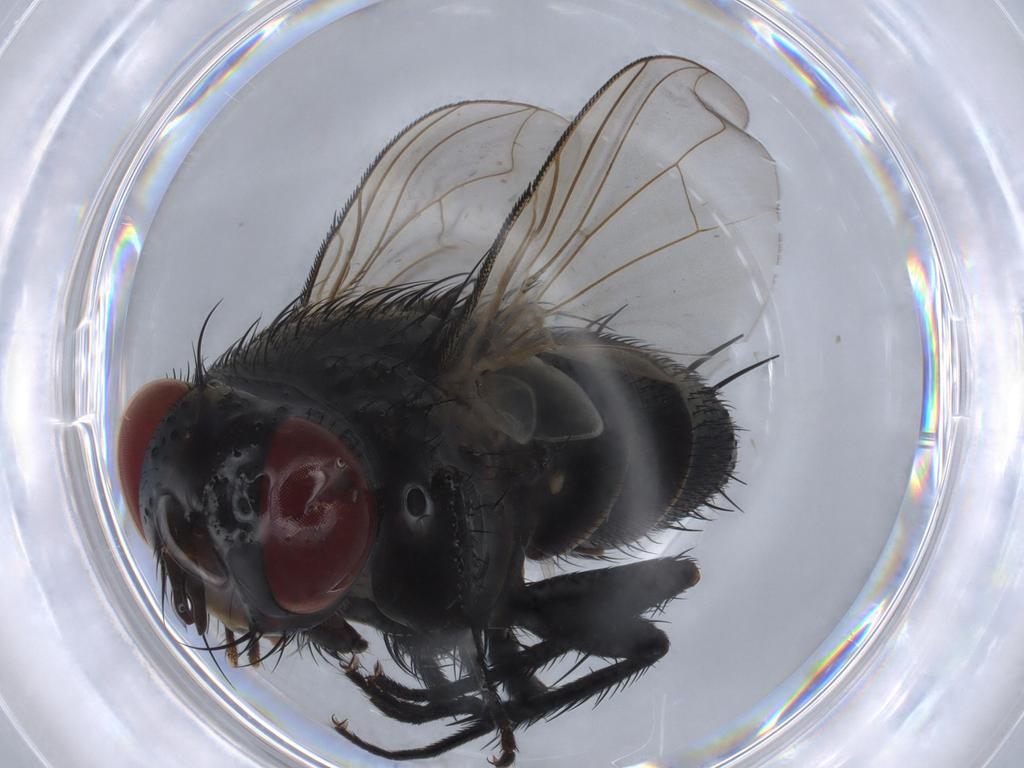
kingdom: Animalia
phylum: Arthropoda
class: Insecta
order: Diptera
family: Tachinidae
